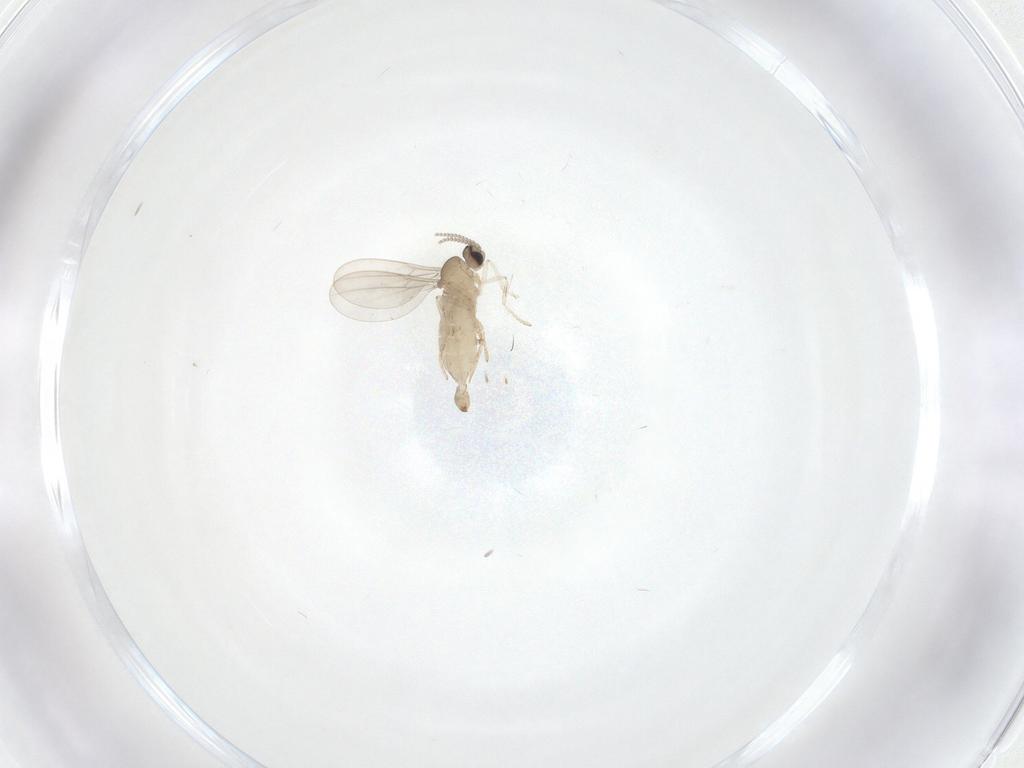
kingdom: Animalia
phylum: Arthropoda
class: Insecta
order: Diptera
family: Cecidomyiidae
